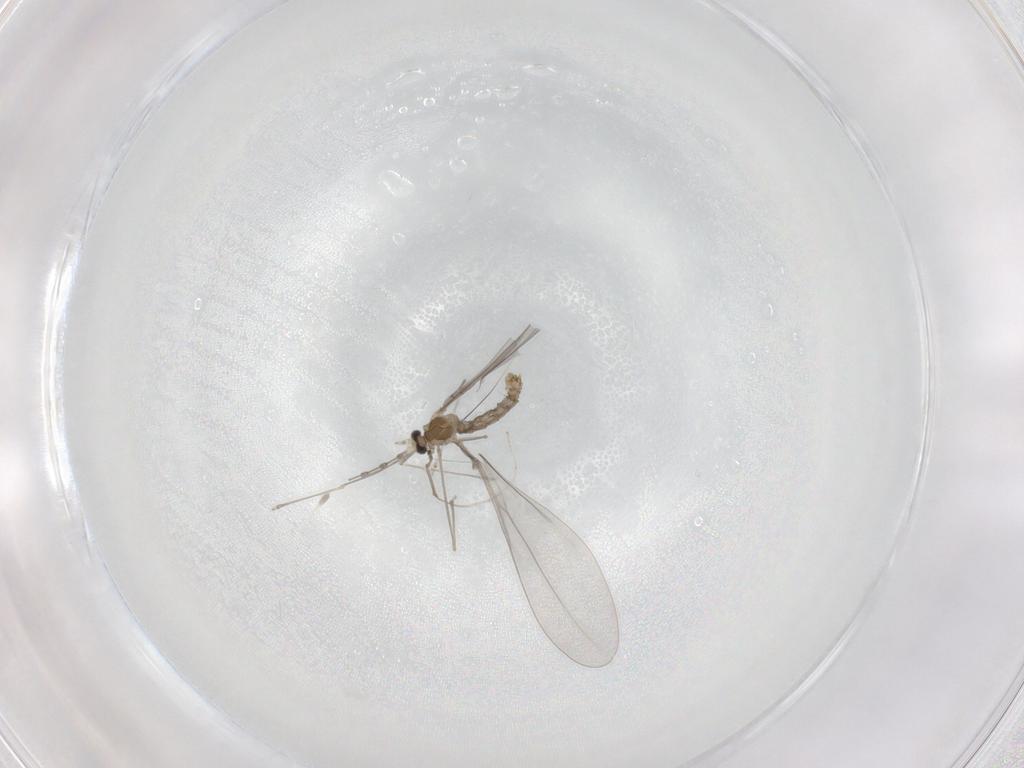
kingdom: Animalia
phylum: Arthropoda
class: Insecta
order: Diptera
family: Cecidomyiidae
